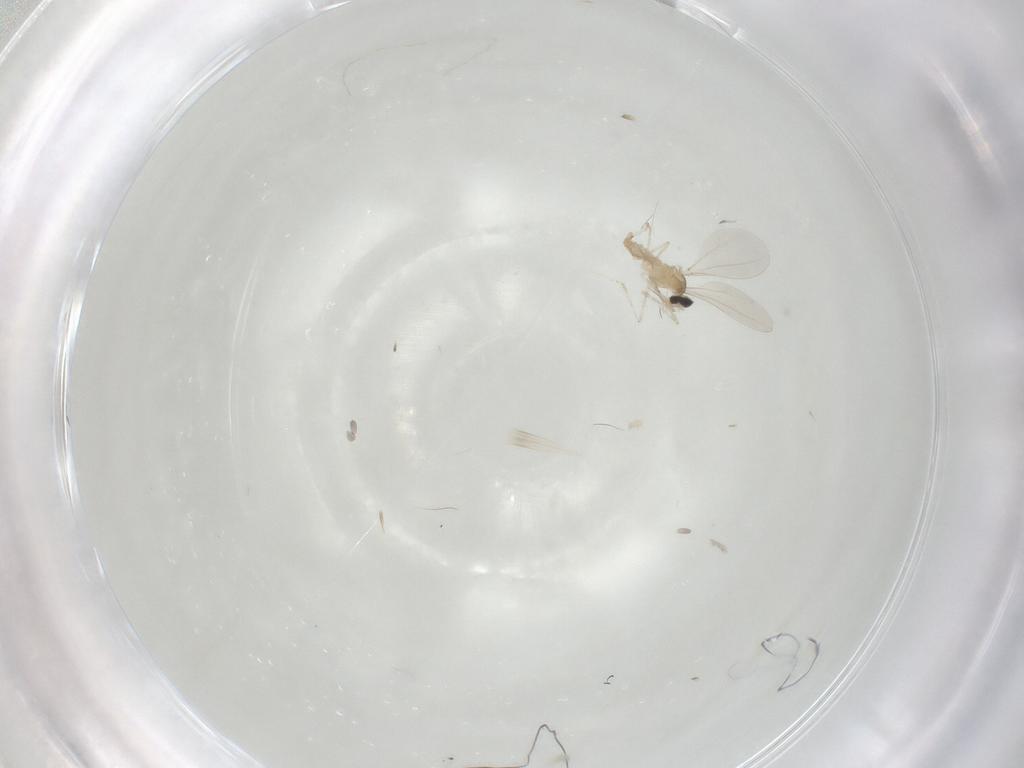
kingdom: Animalia
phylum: Arthropoda
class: Insecta
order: Diptera
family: Cecidomyiidae
